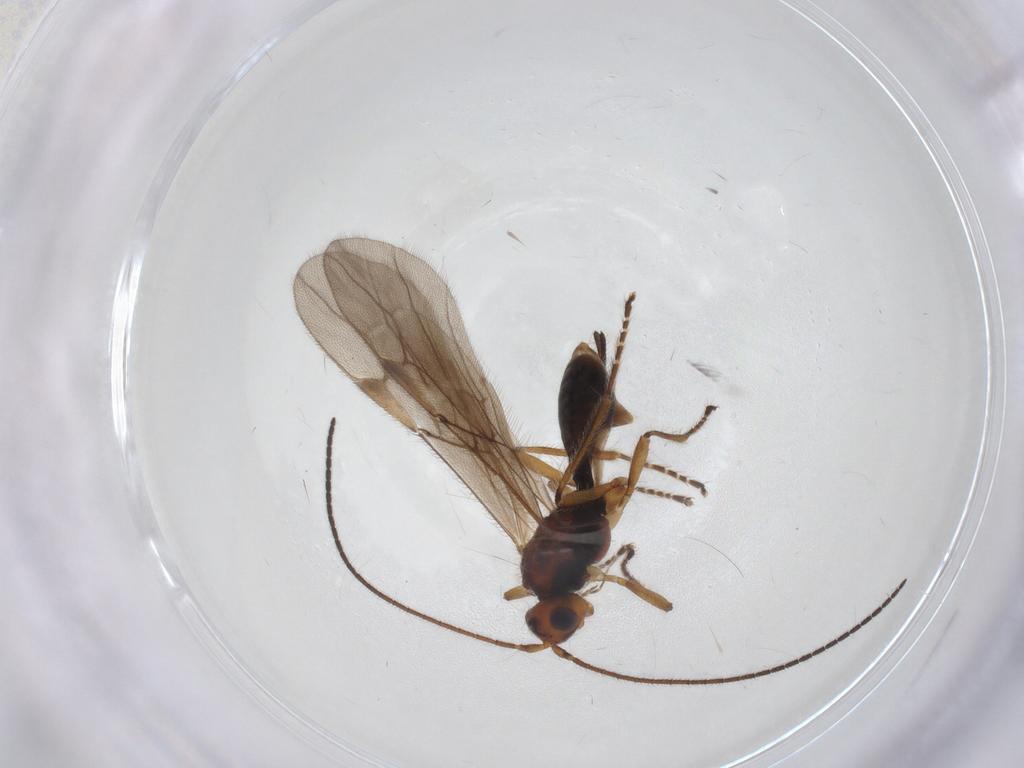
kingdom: Animalia
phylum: Arthropoda
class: Insecta
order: Hymenoptera
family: Braconidae
